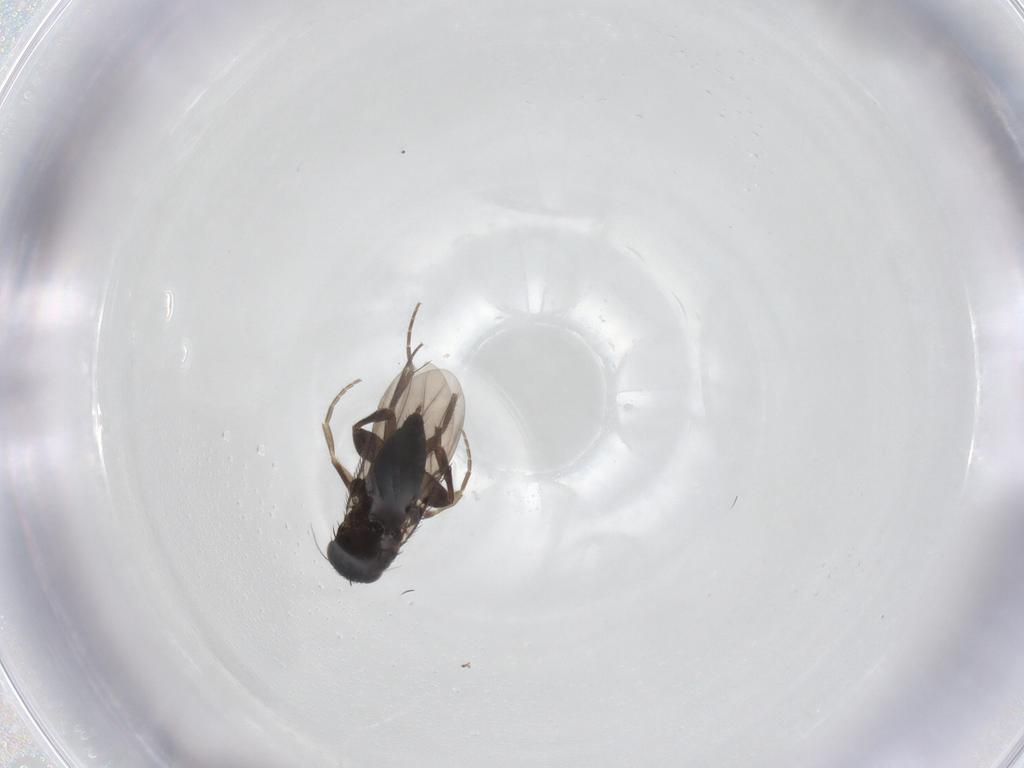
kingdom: Animalia
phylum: Arthropoda
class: Insecta
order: Diptera
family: Phoridae
